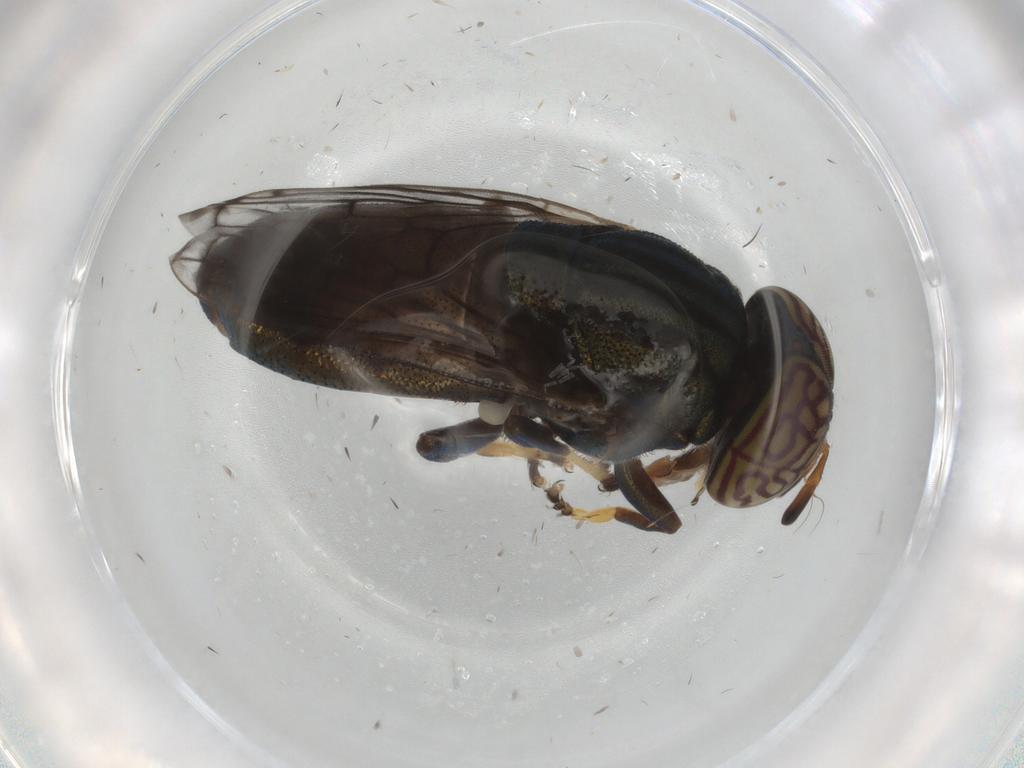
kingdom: Animalia
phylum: Arthropoda
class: Insecta
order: Diptera
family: Syrphidae
